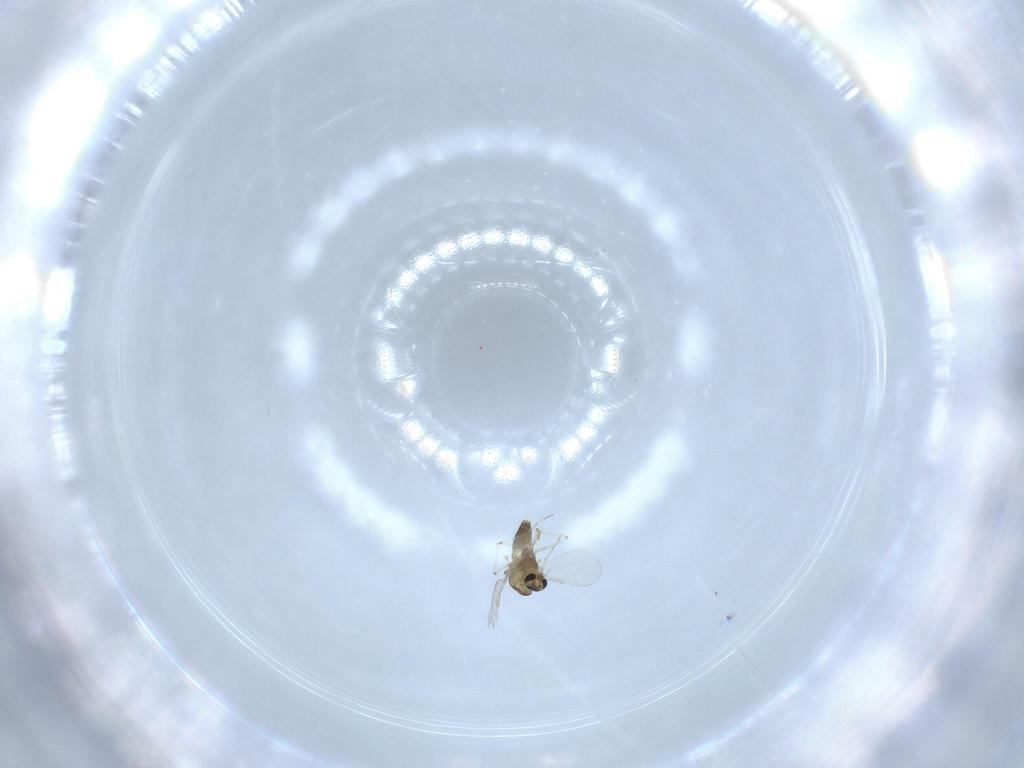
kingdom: Animalia
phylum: Arthropoda
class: Insecta
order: Diptera
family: Chironomidae
